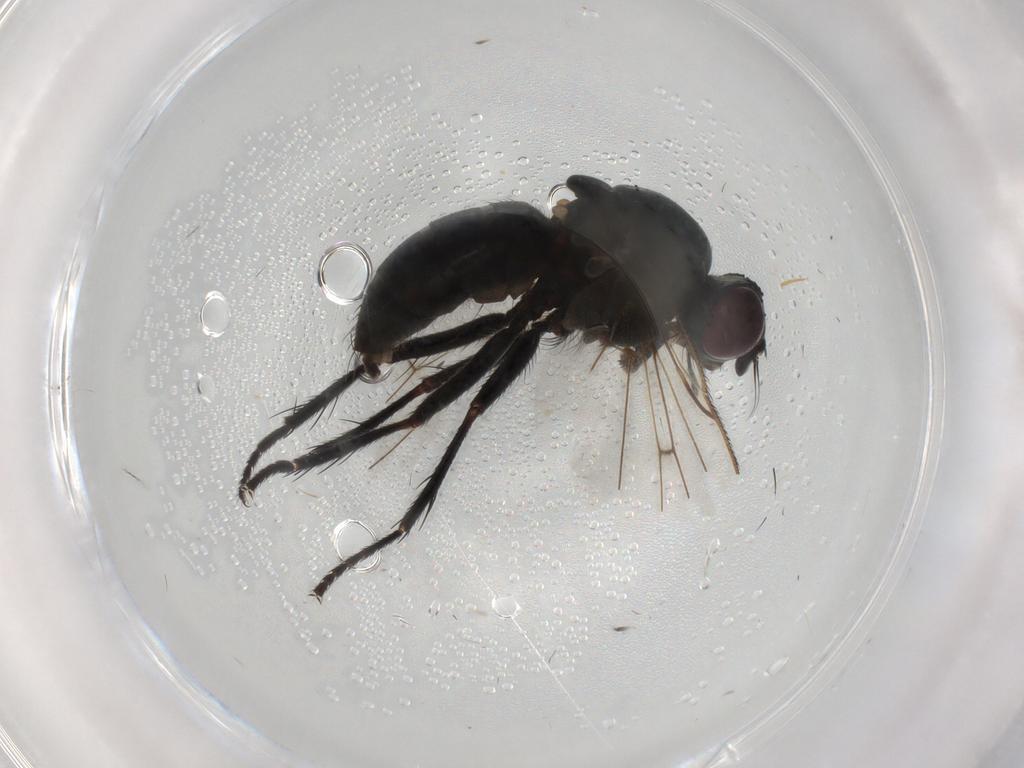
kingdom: Animalia
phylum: Arthropoda
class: Insecta
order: Diptera
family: Muscidae
